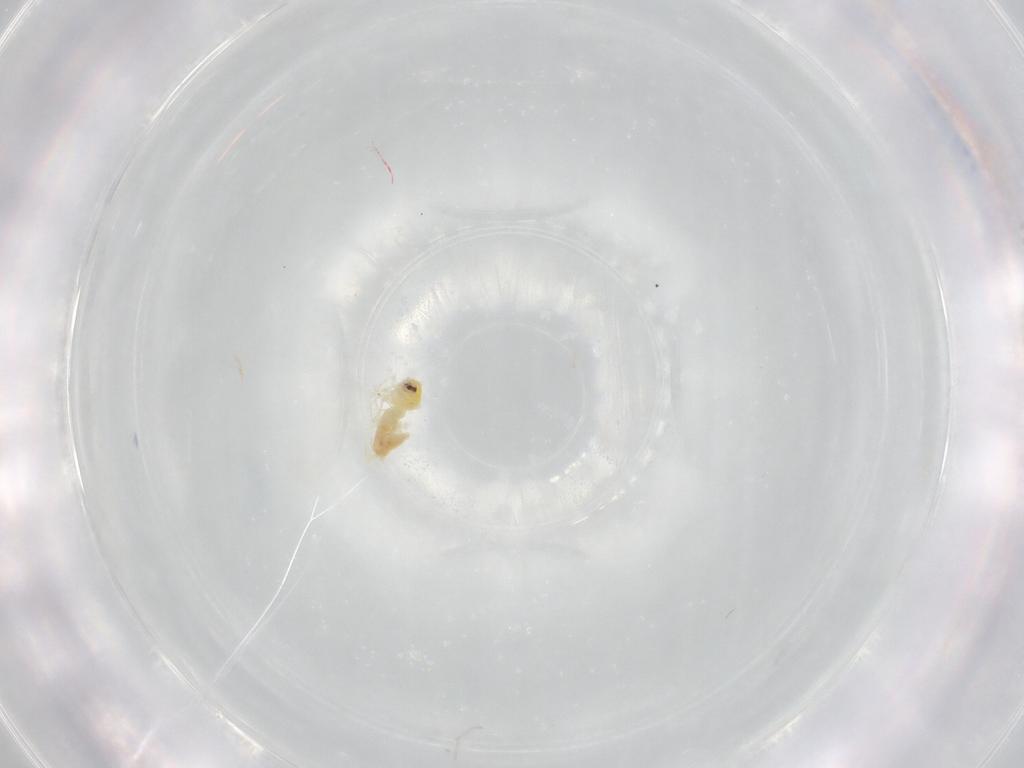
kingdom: Animalia
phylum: Arthropoda
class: Insecta
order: Hemiptera
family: Aleyrodidae
